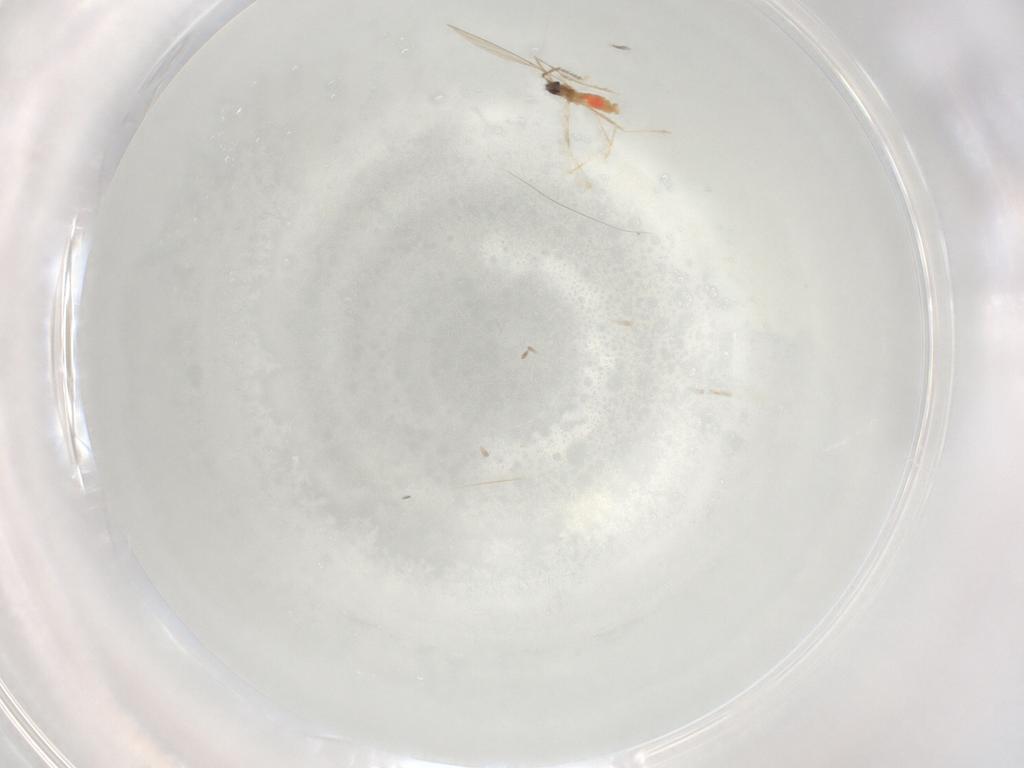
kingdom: Animalia
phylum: Arthropoda
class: Insecta
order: Diptera
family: Cecidomyiidae
